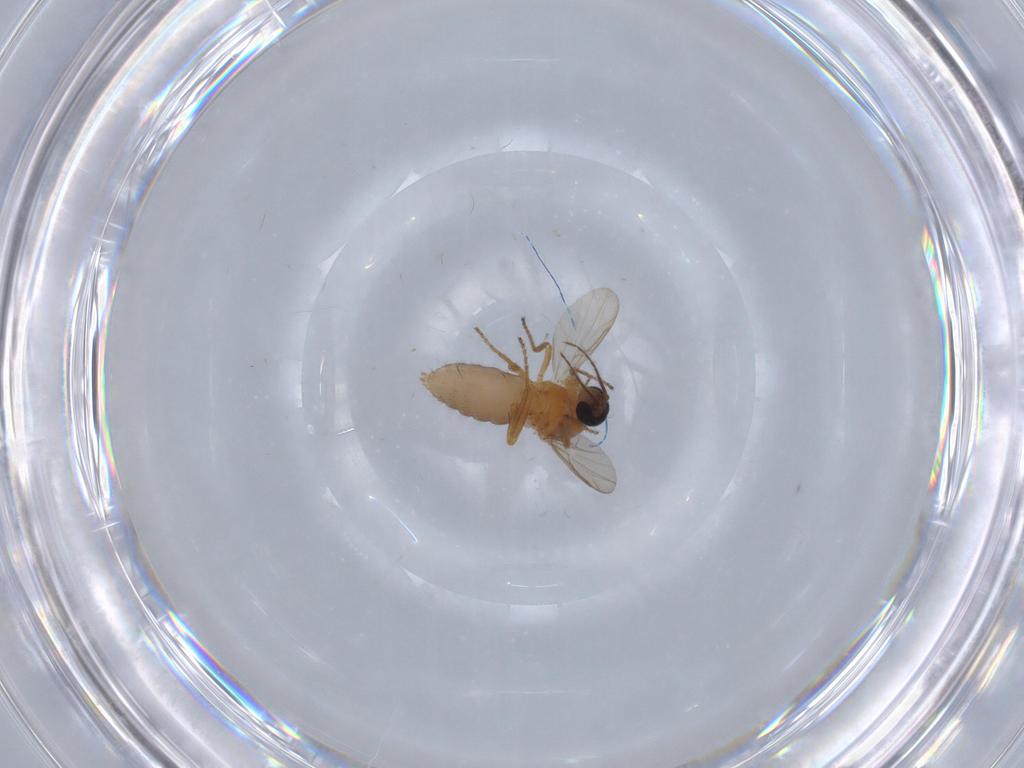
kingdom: Animalia
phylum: Arthropoda
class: Insecta
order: Diptera
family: Ceratopogonidae
